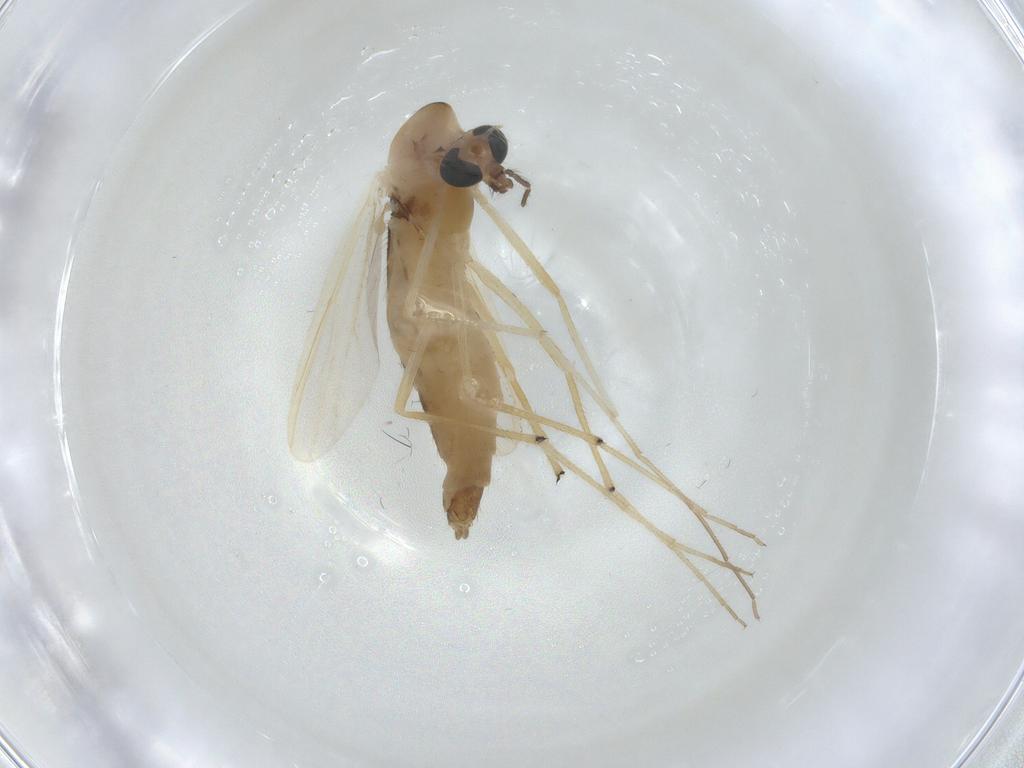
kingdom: Animalia
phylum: Arthropoda
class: Insecta
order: Diptera
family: Chironomidae
